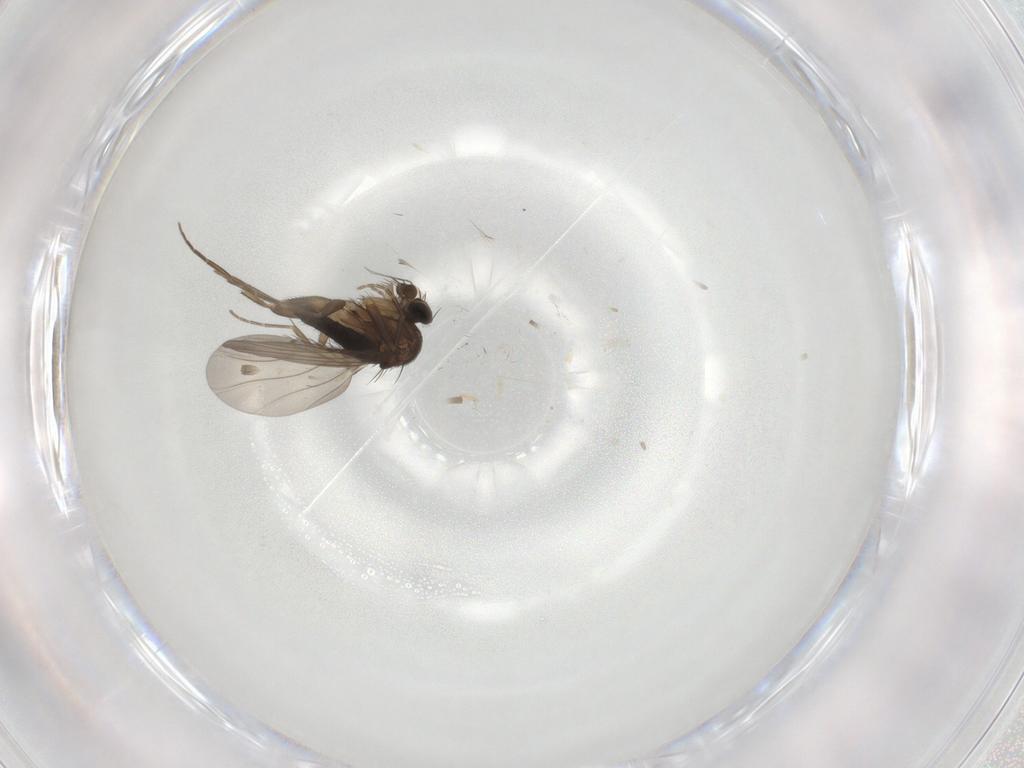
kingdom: Animalia
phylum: Arthropoda
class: Insecta
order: Diptera
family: Phoridae
